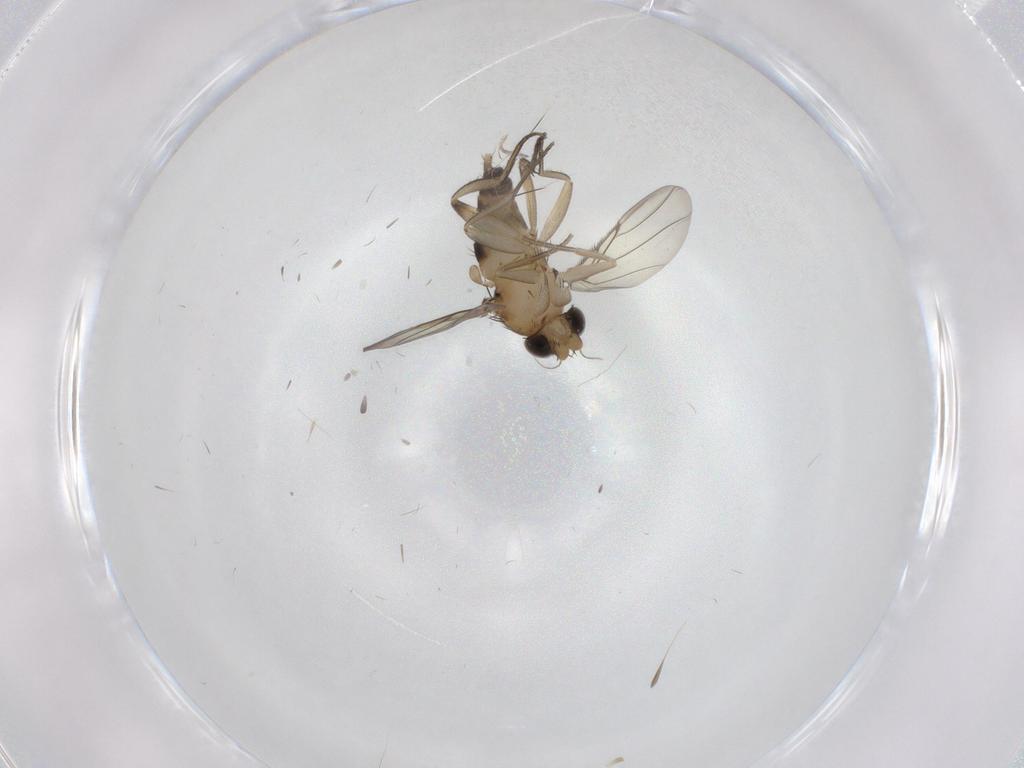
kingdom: Animalia
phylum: Arthropoda
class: Insecta
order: Diptera
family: Phoridae
